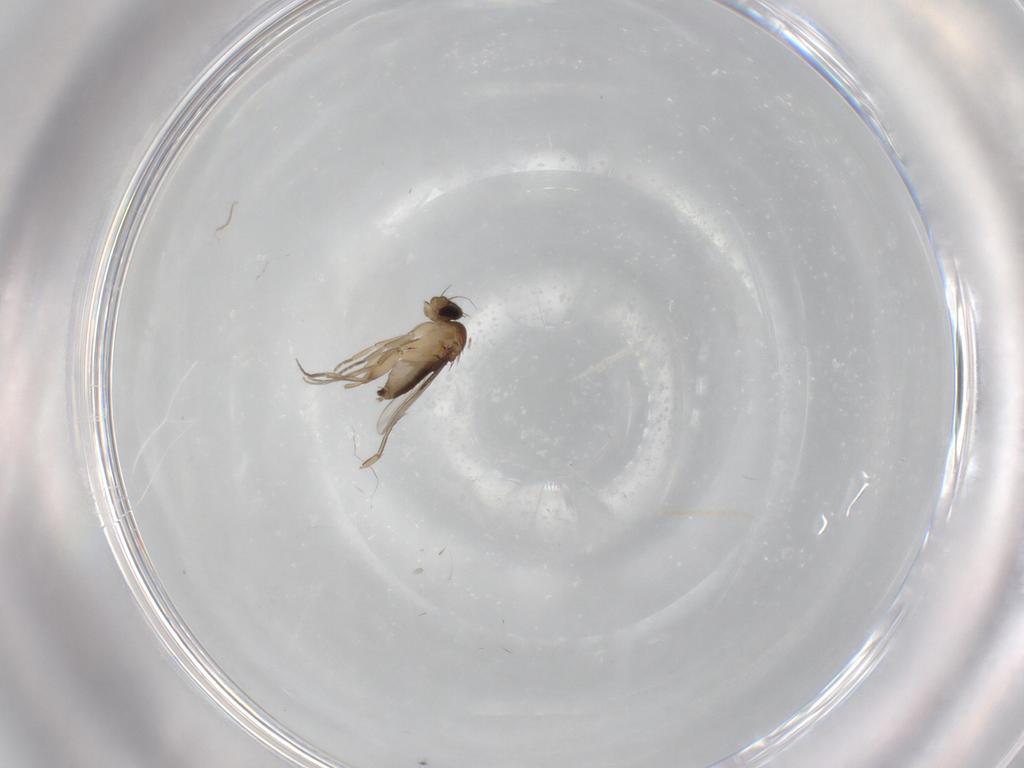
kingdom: Animalia
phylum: Arthropoda
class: Insecta
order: Diptera
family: Phoridae
